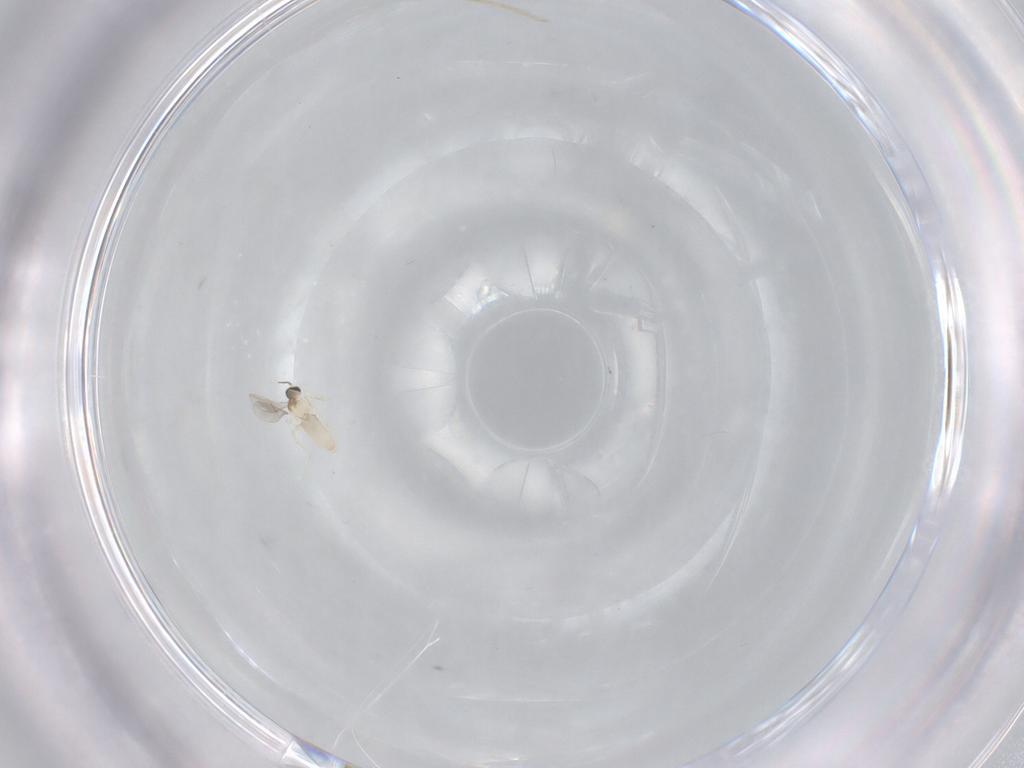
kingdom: Animalia
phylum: Arthropoda
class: Insecta
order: Diptera
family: Cecidomyiidae
